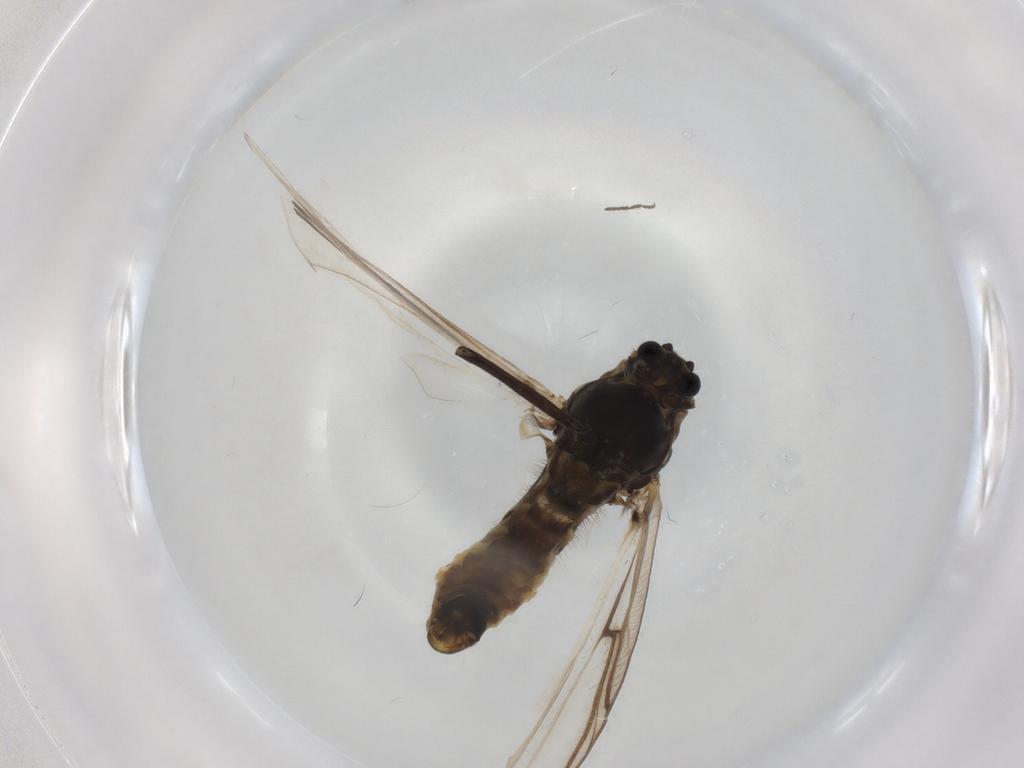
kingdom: Animalia
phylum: Arthropoda
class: Insecta
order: Diptera
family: Chironomidae
